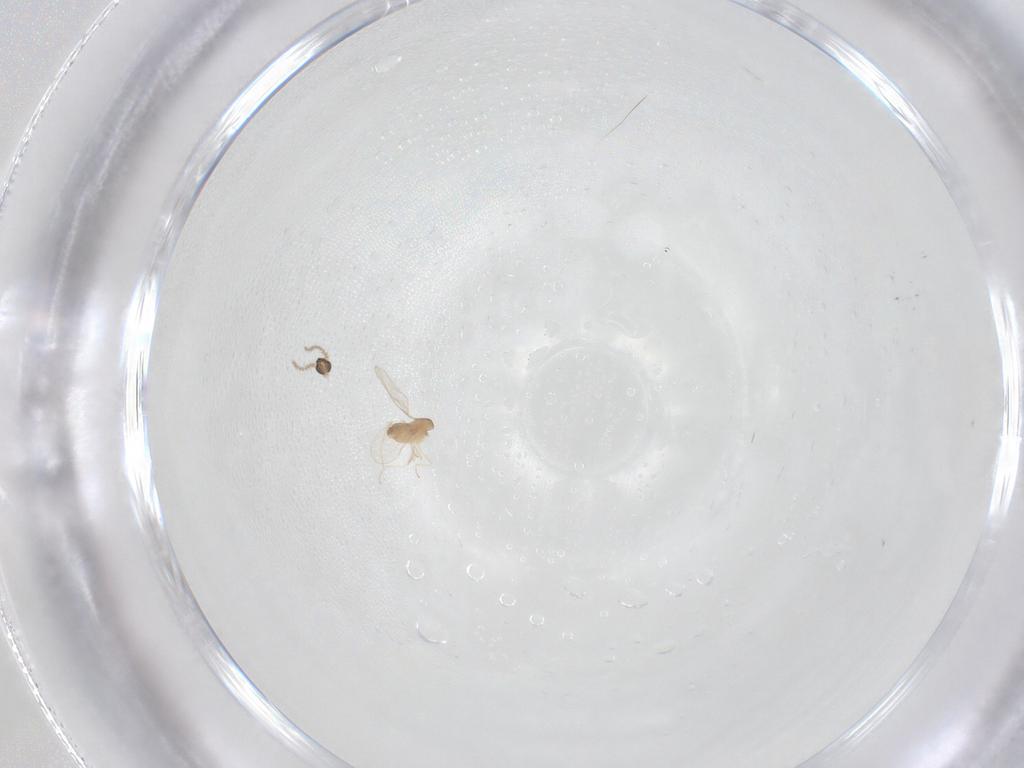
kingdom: Animalia
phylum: Arthropoda
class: Insecta
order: Diptera
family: Cecidomyiidae
